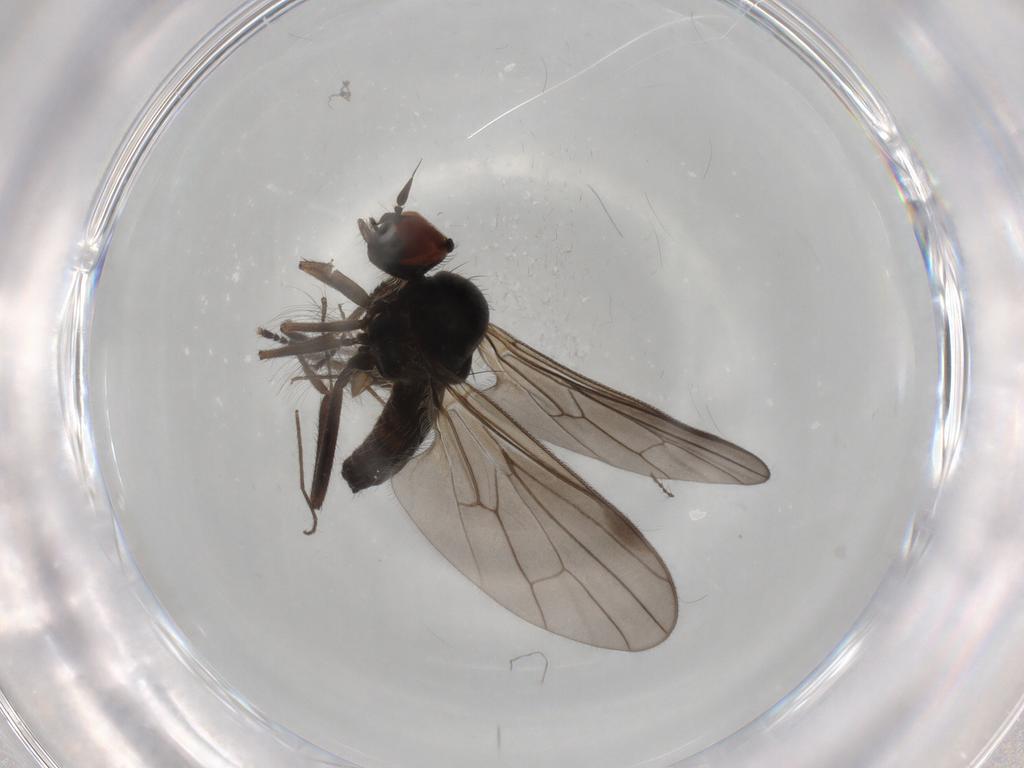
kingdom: Animalia
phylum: Arthropoda
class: Insecta
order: Diptera
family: Hybotidae
